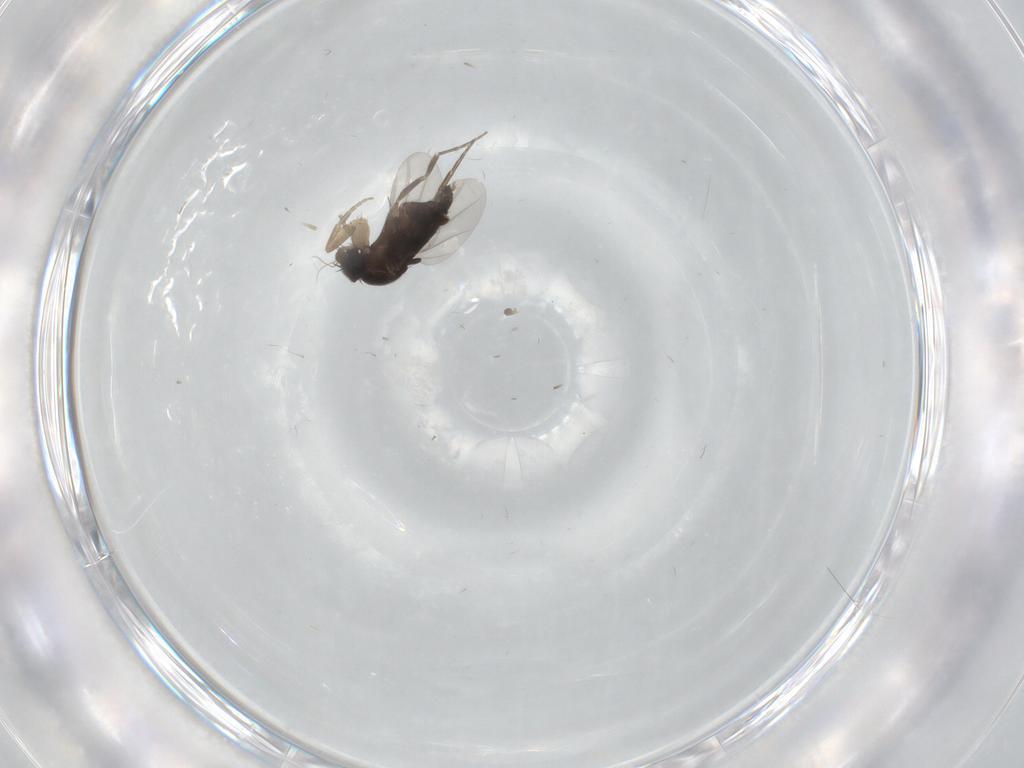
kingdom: Animalia
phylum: Arthropoda
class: Insecta
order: Diptera
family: Phoridae
